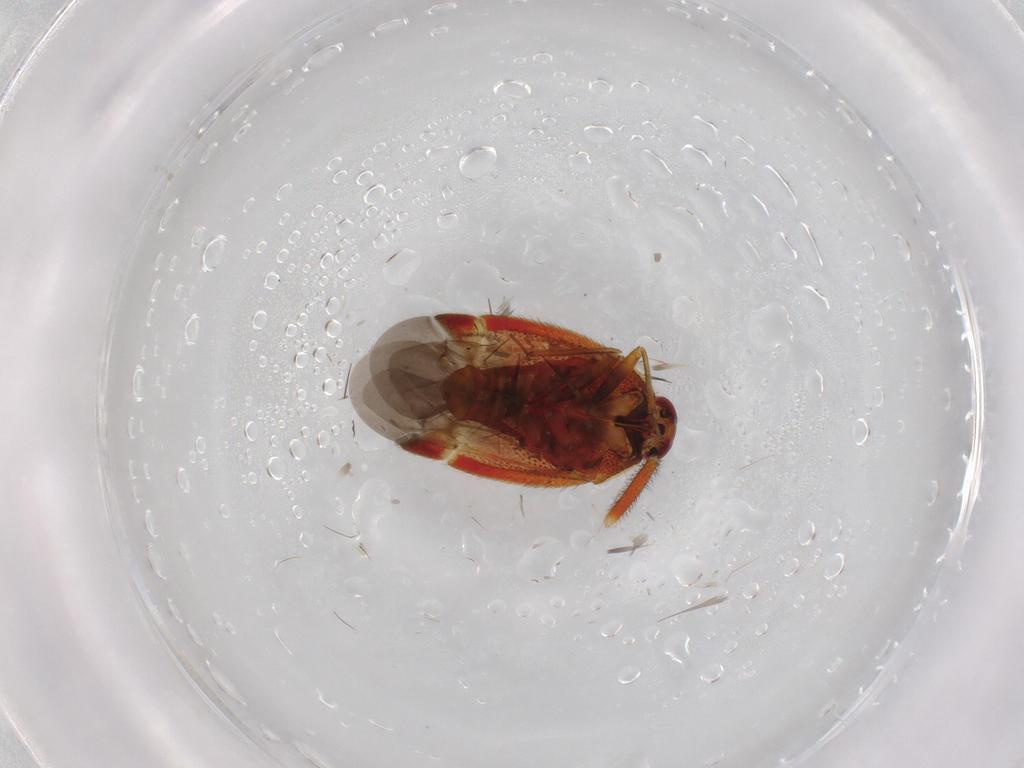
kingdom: Animalia
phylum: Arthropoda
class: Insecta
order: Hemiptera
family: Miridae
